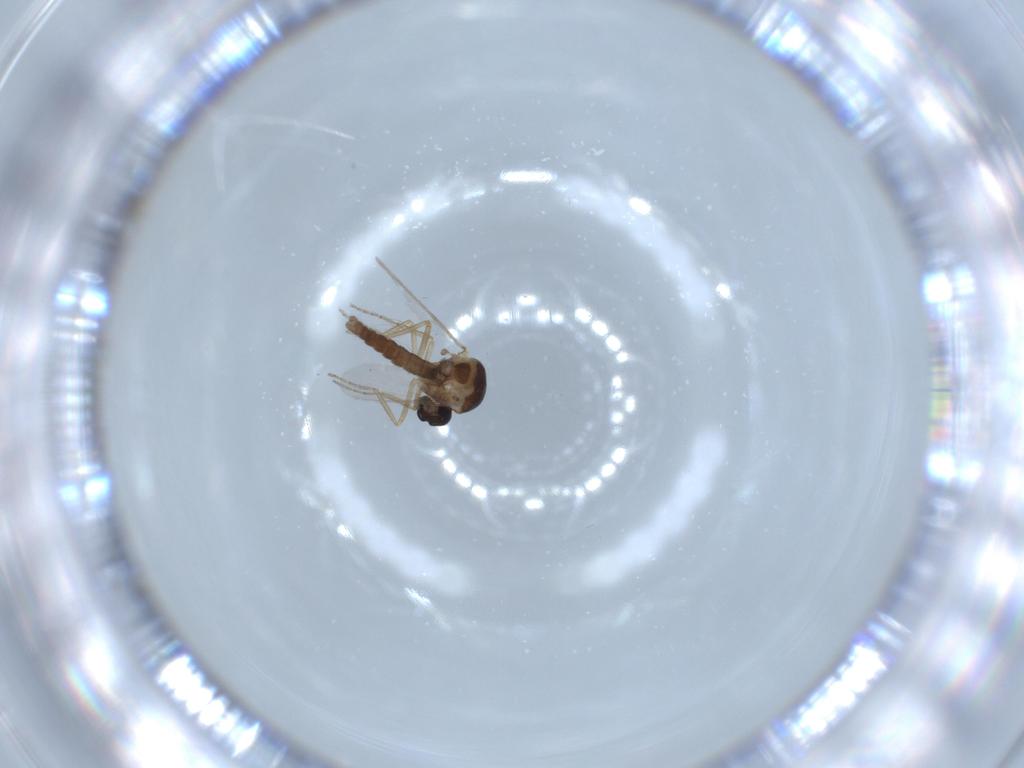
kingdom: Animalia
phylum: Arthropoda
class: Insecta
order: Diptera
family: Ceratopogonidae
